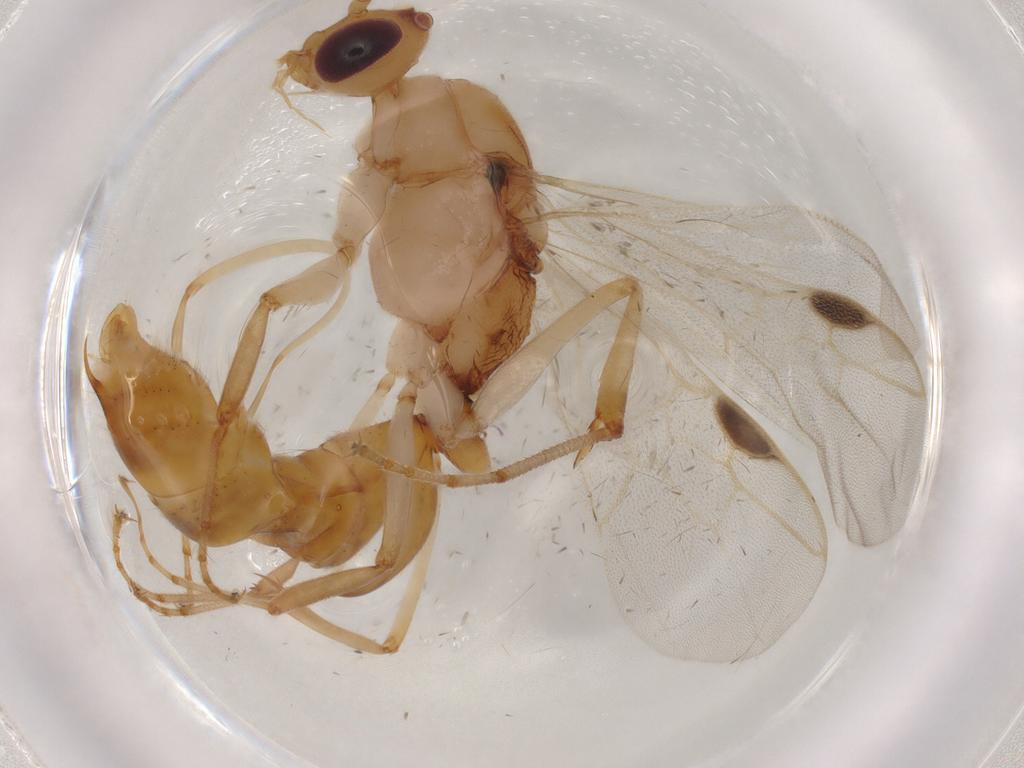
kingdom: Animalia
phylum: Arthropoda
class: Insecta
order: Hymenoptera
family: Formicidae
